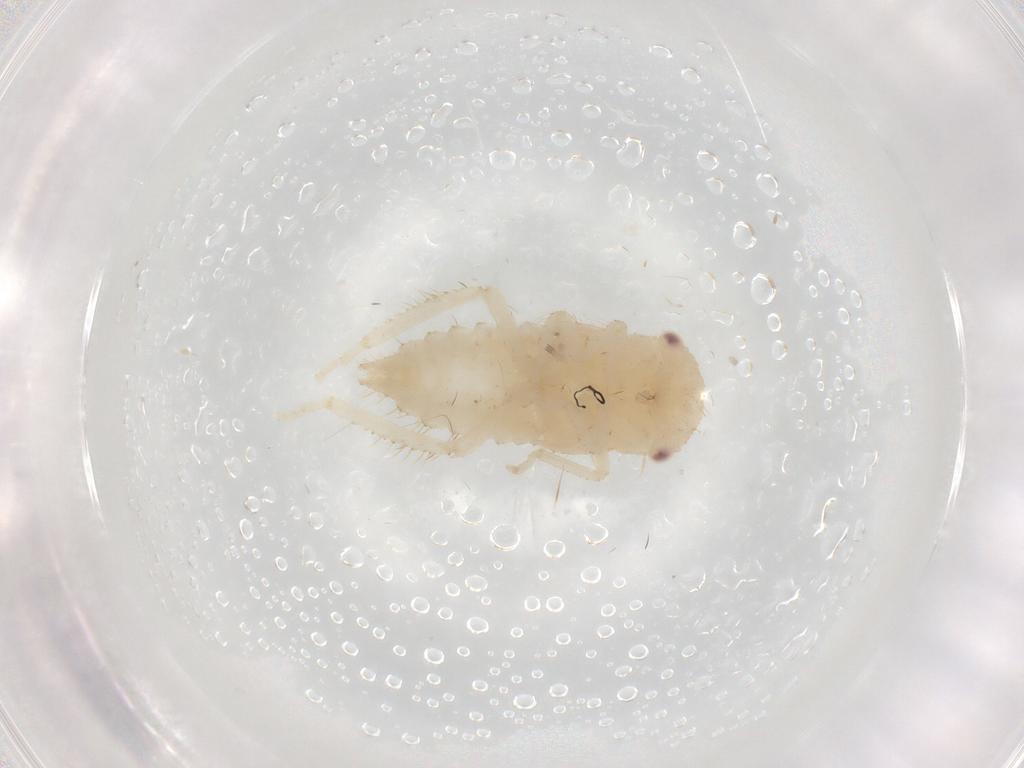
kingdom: Animalia
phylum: Arthropoda
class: Insecta
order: Hemiptera
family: Cicadellidae
